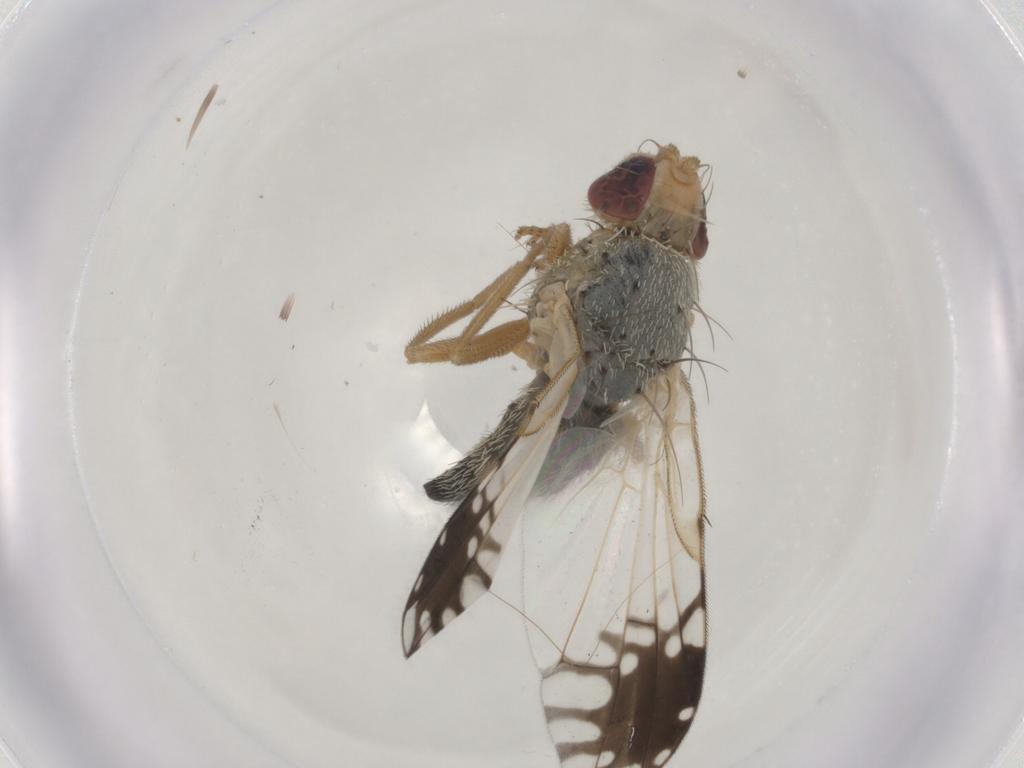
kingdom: Animalia
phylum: Arthropoda
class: Insecta
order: Diptera
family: Tephritidae
